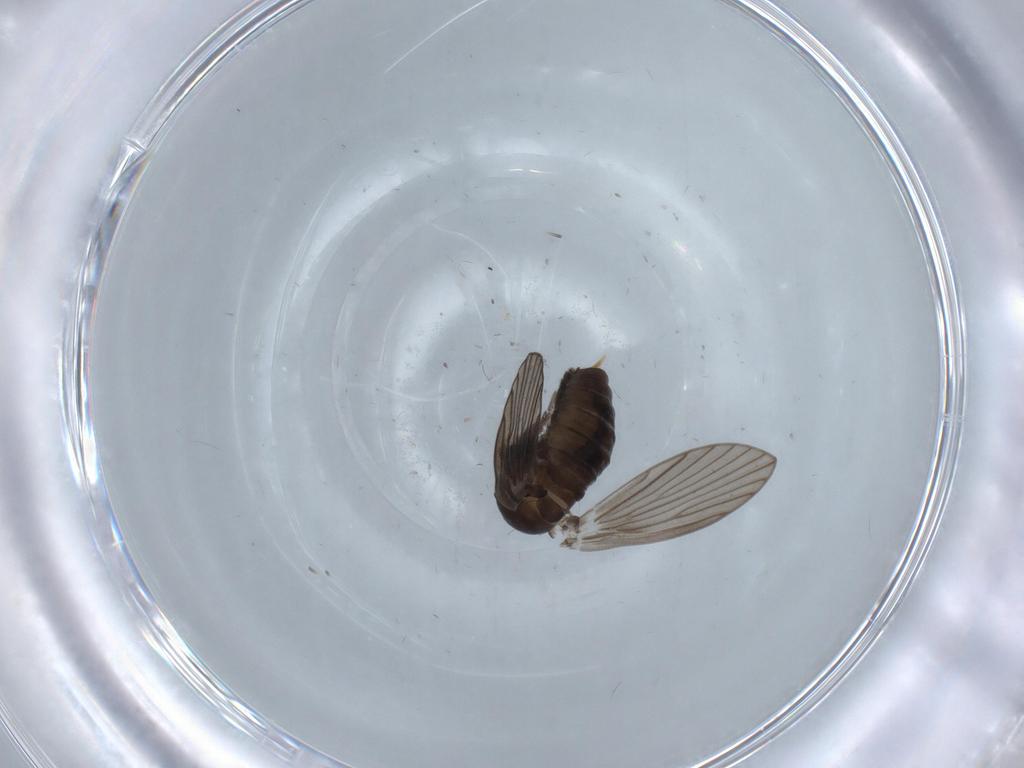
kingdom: Animalia
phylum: Arthropoda
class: Insecta
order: Diptera
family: Psychodidae
